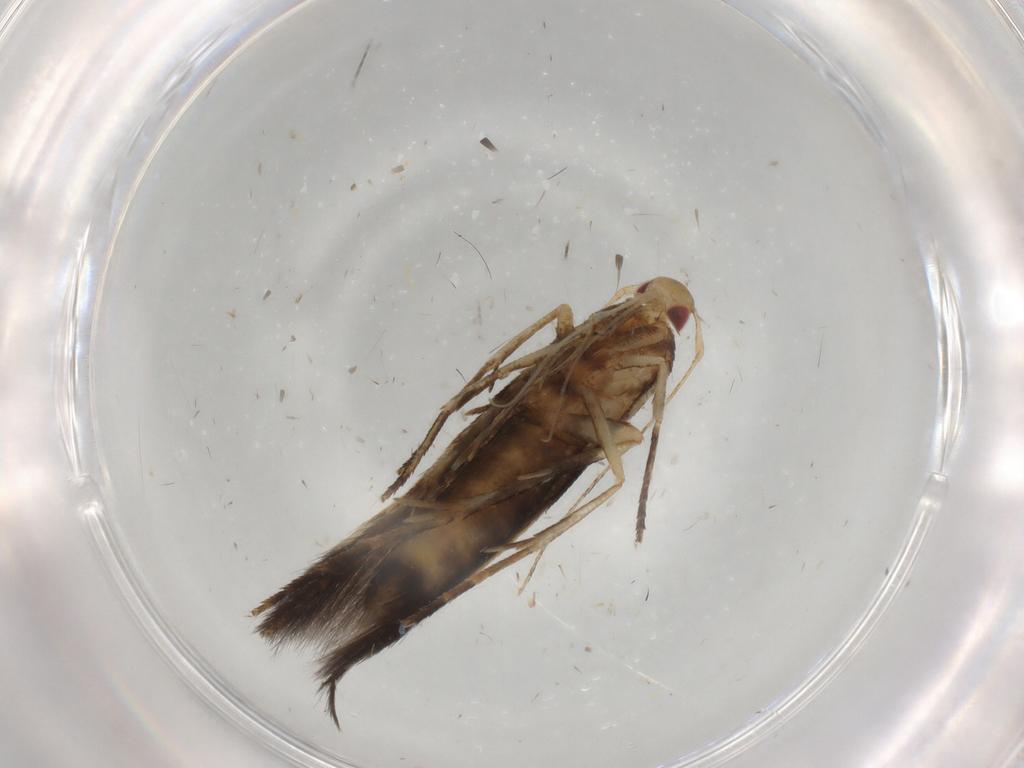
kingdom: Animalia
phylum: Arthropoda
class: Insecta
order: Lepidoptera
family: Cosmopterigidae
